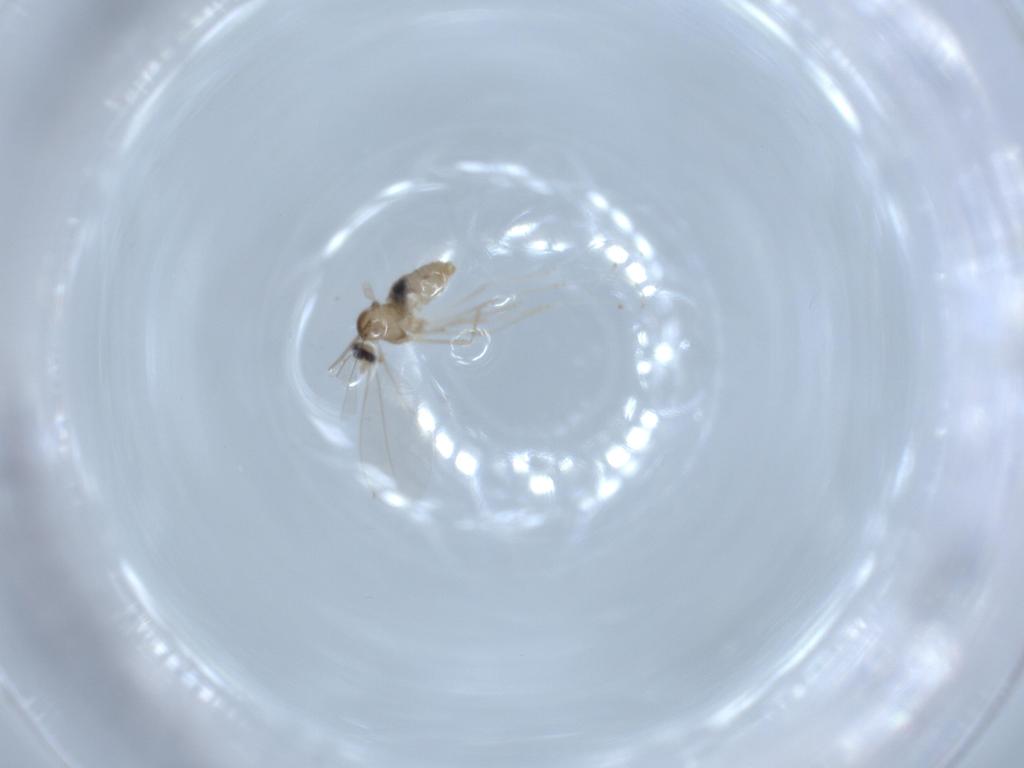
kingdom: Animalia
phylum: Arthropoda
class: Insecta
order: Diptera
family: Cecidomyiidae
